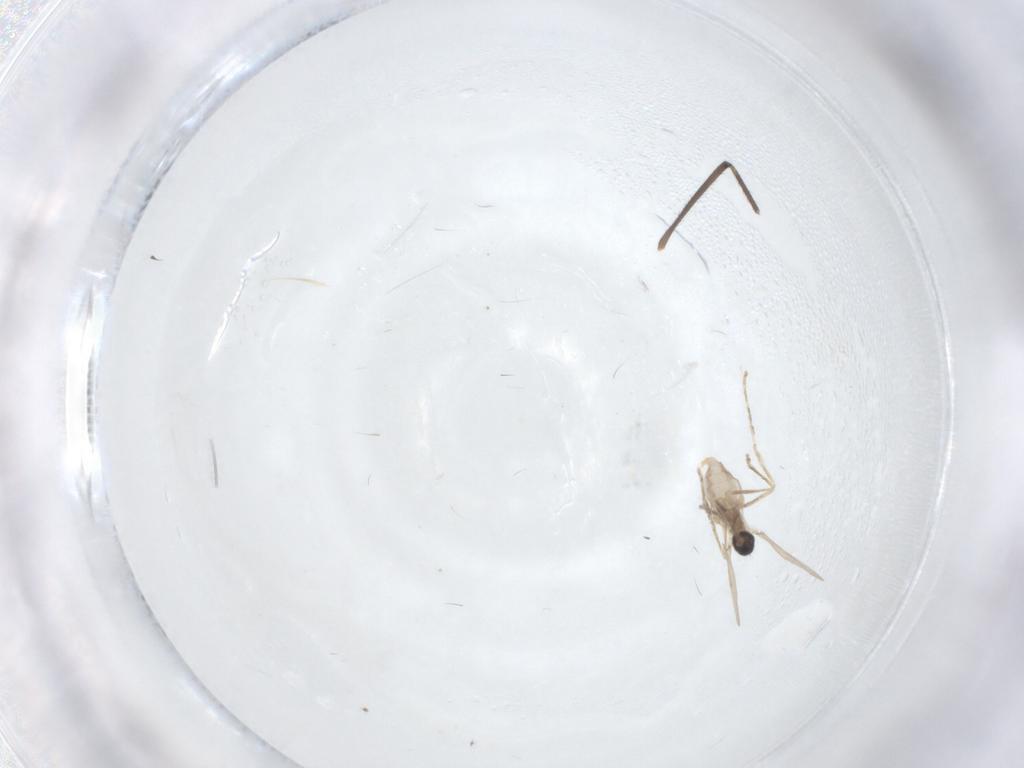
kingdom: Animalia
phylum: Arthropoda
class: Insecta
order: Diptera
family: Cecidomyiidae
